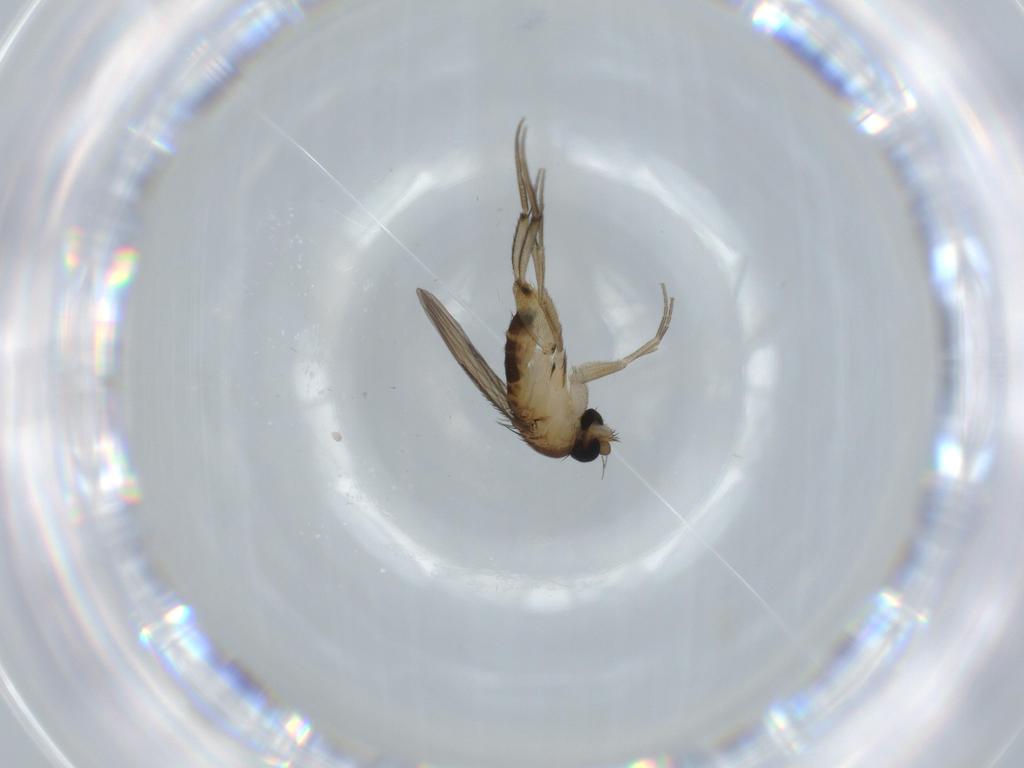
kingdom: Animalia
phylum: Arthropoda
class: Insecta
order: Diptera
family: Phoridae
